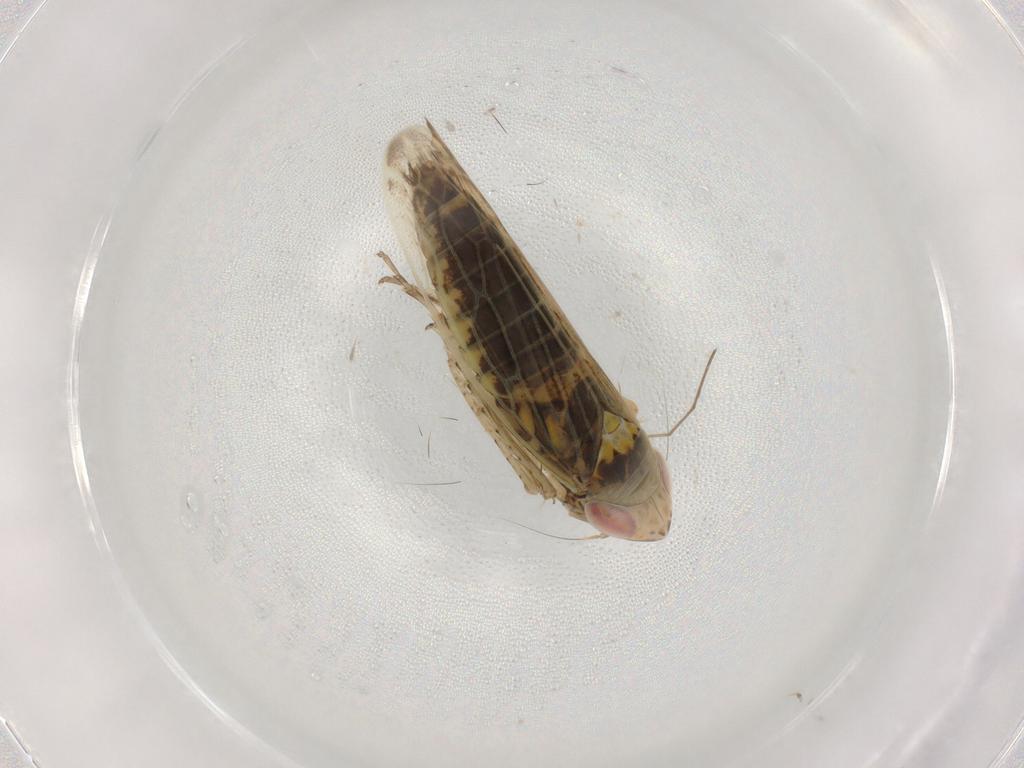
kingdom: Animalia
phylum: Arthropoda
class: Insecta
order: Hemiptera
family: Cicadellidae
